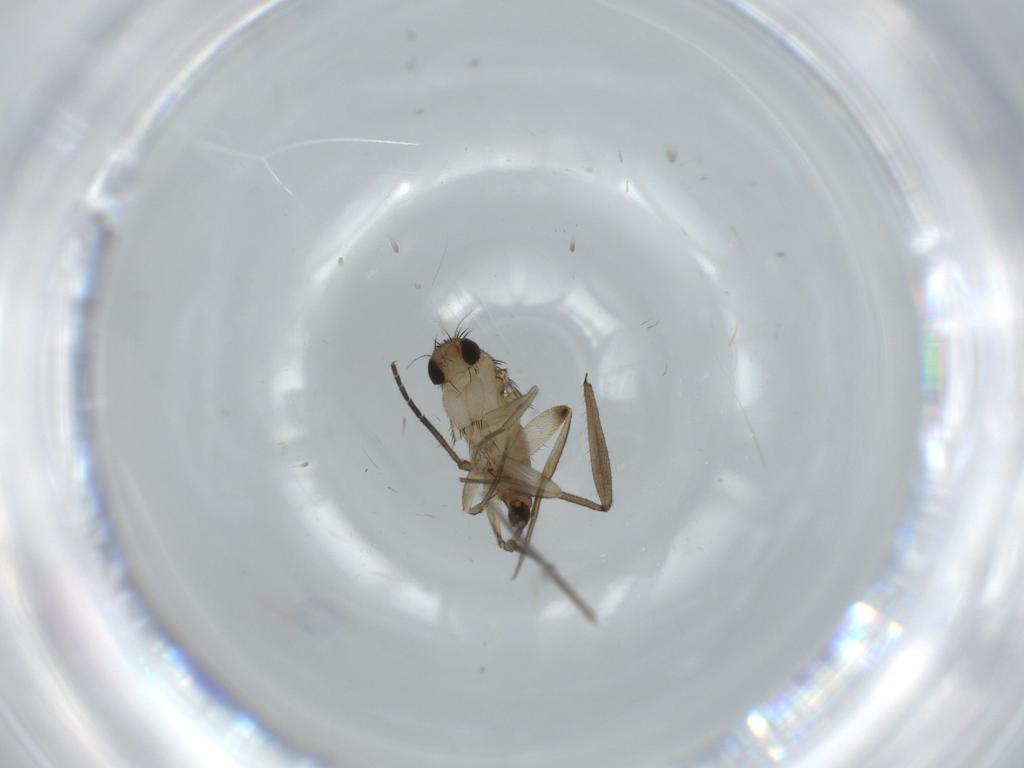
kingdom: Animalia
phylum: Arthropoda
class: Insecta
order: Diptera
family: Phoridae
